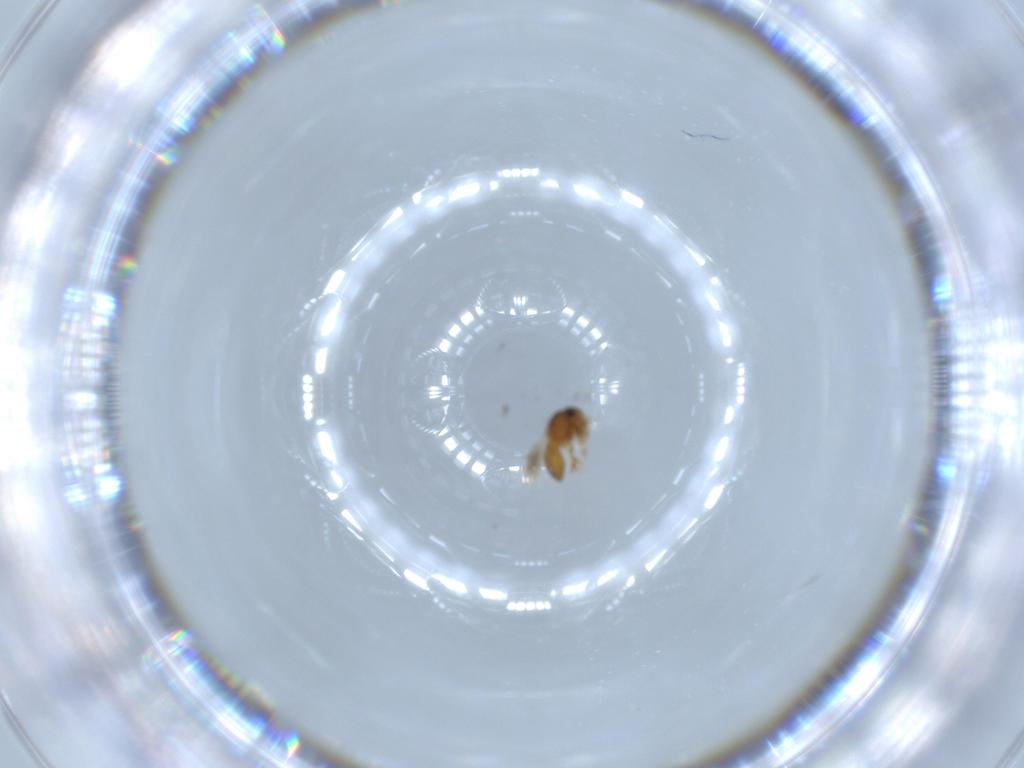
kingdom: Animalia
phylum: Arthropoda
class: Insecta
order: Hymenoptera
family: Scelionidae
